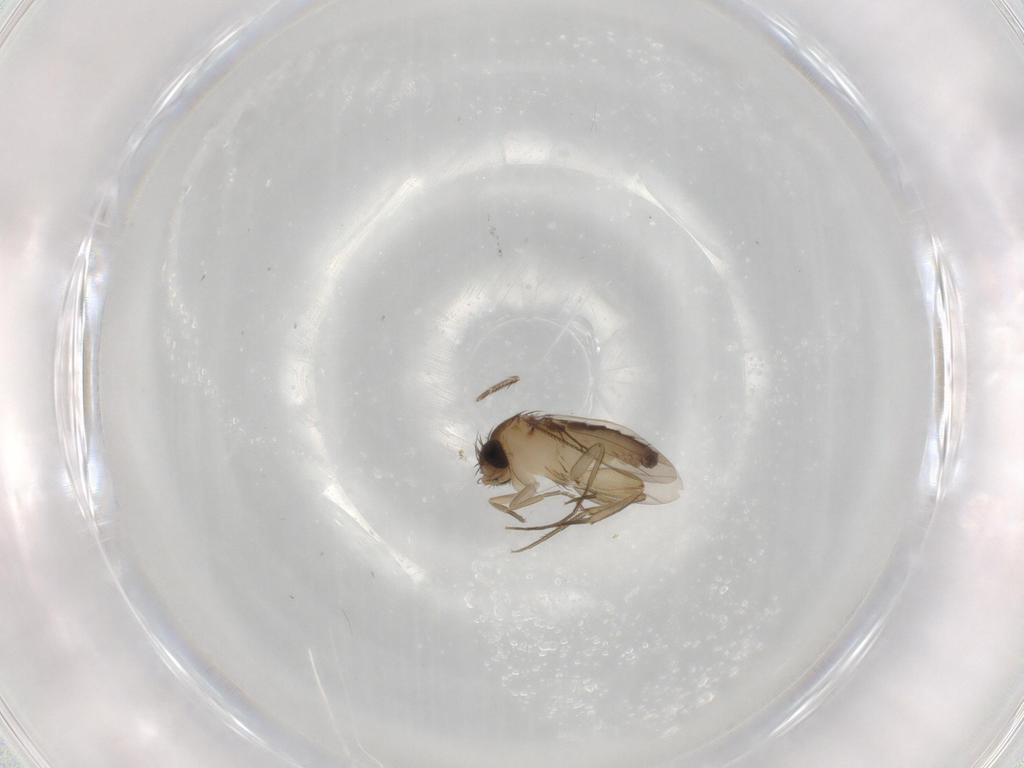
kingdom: Animalia
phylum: Arthropoda
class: Insecta
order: Diptera
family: Phoridae
